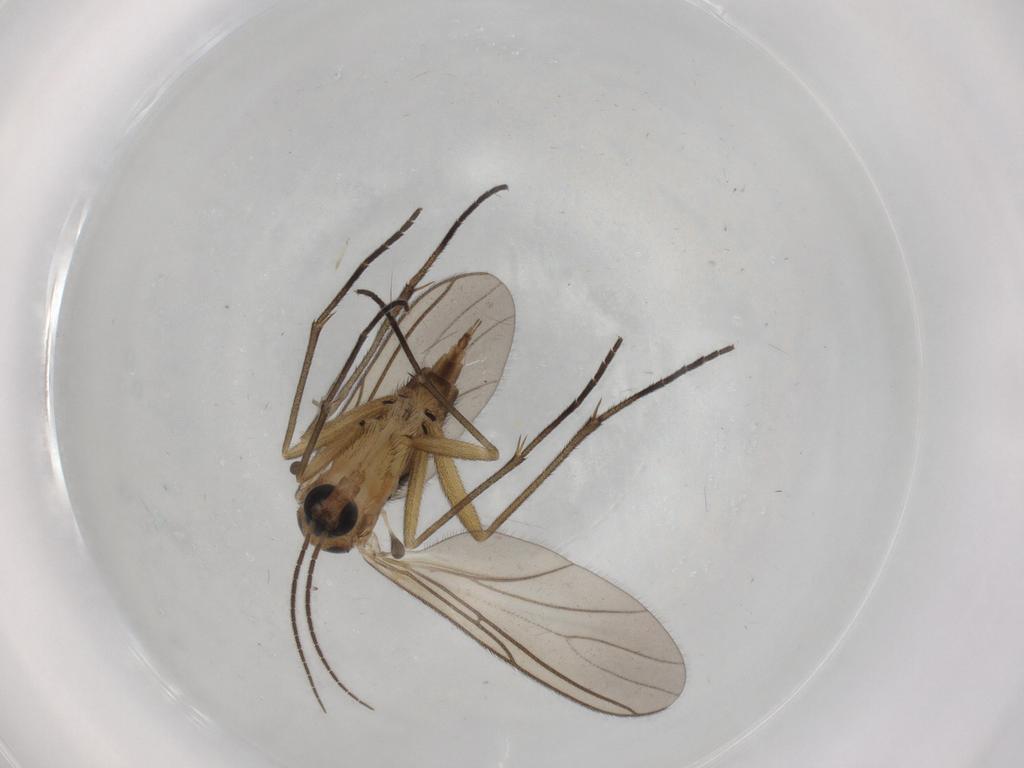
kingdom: Animalia
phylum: Arthropoda
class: Insecta
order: Diptera
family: Sciaridae
